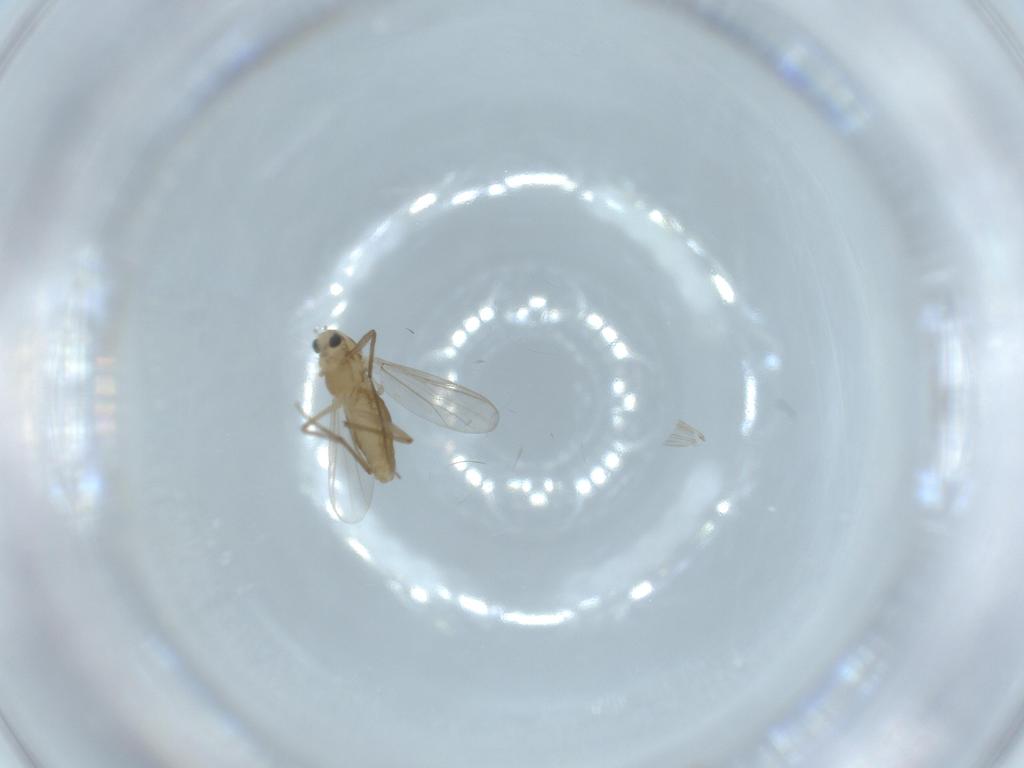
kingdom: Animalia
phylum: Arthropoda
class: Insecta
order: Diptera
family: Chironomidae
